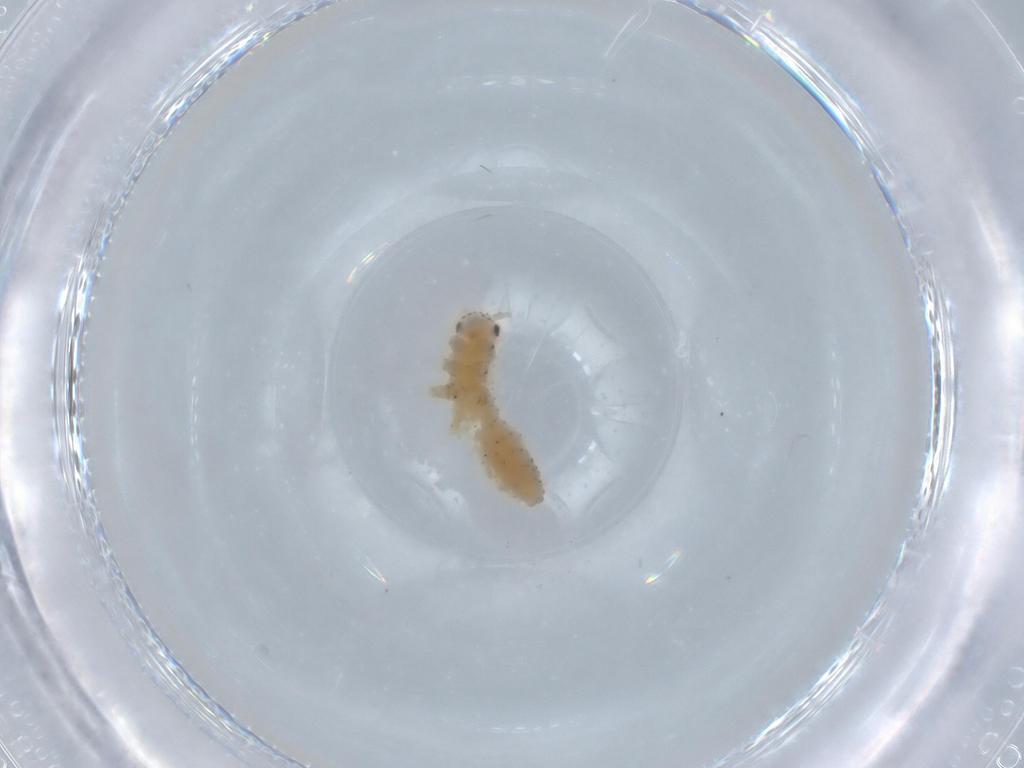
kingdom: Animalia
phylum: Arthropoda
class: Insecta
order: Hemiptera
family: Aphididae
